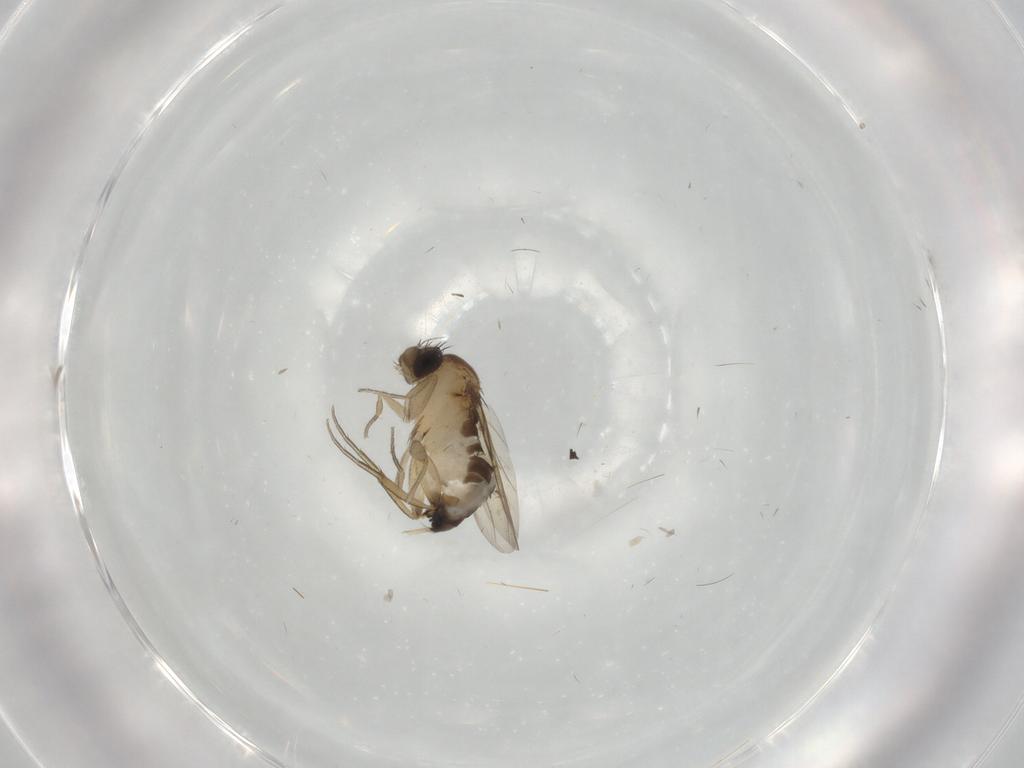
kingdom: Animalia
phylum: Arthropoda
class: Insecta
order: Diptera
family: Phoridae
